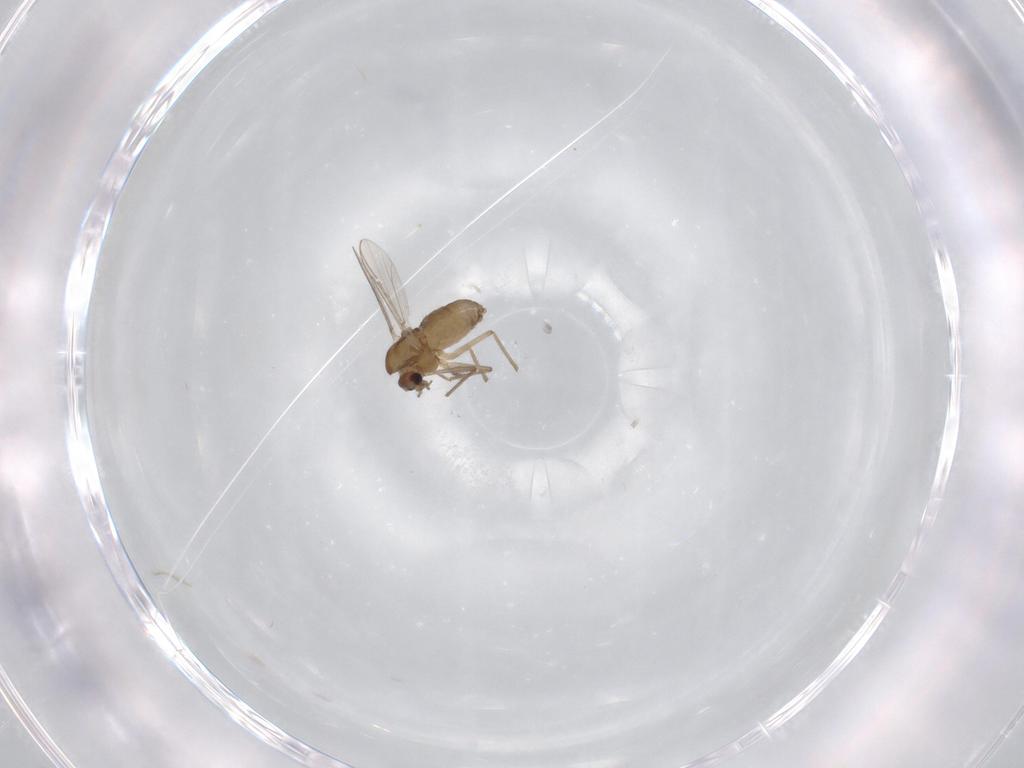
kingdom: Animalia
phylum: Arthropoda
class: Insecta
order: Diptera
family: Chironomidae
